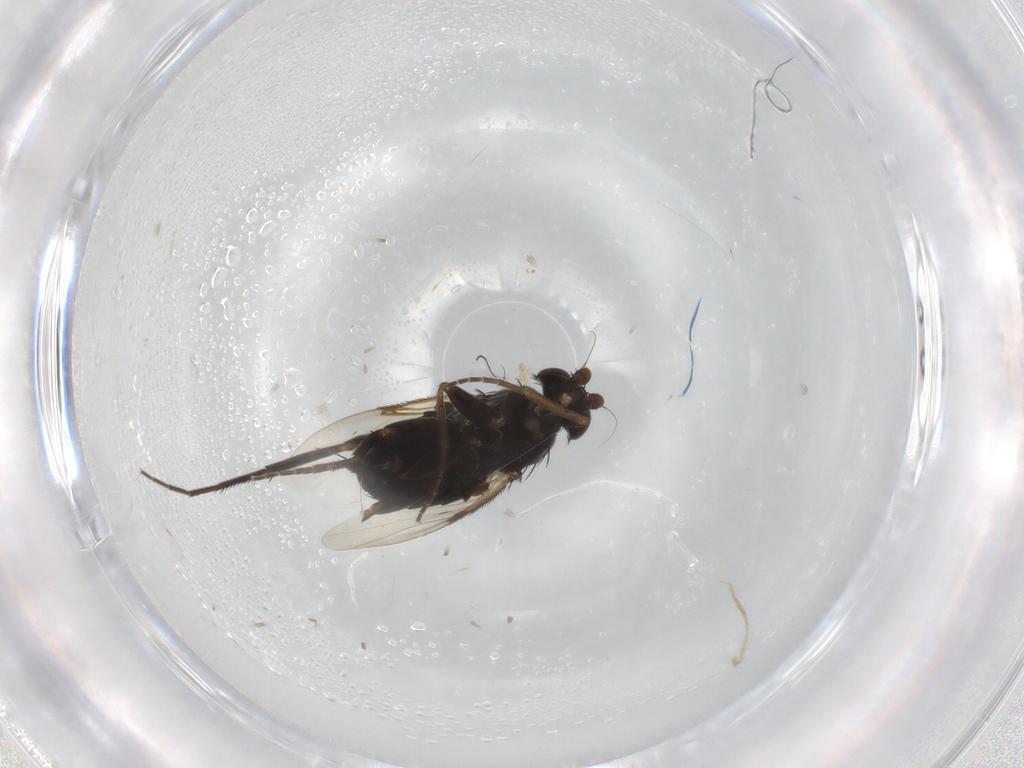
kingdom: Animalia
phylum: Arthropoda
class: Insecta
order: Diptera
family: Phoridae
